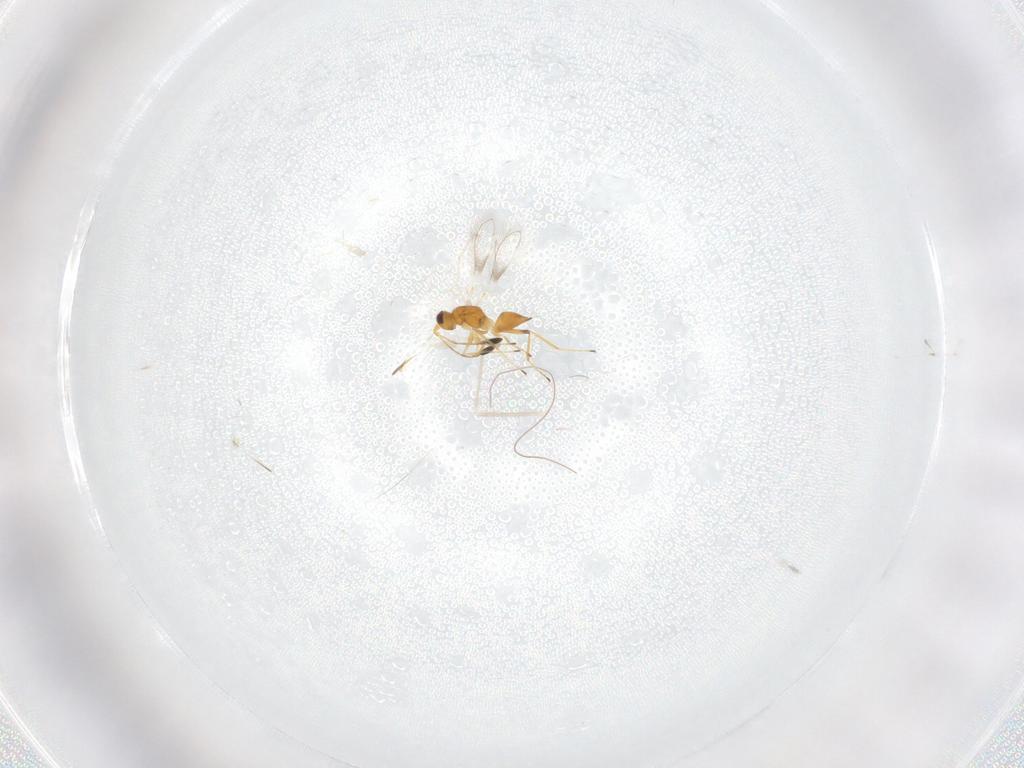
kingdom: Animalia
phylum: Arthropoda
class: Insecta
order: Hymenoptera
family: Mymaridae
